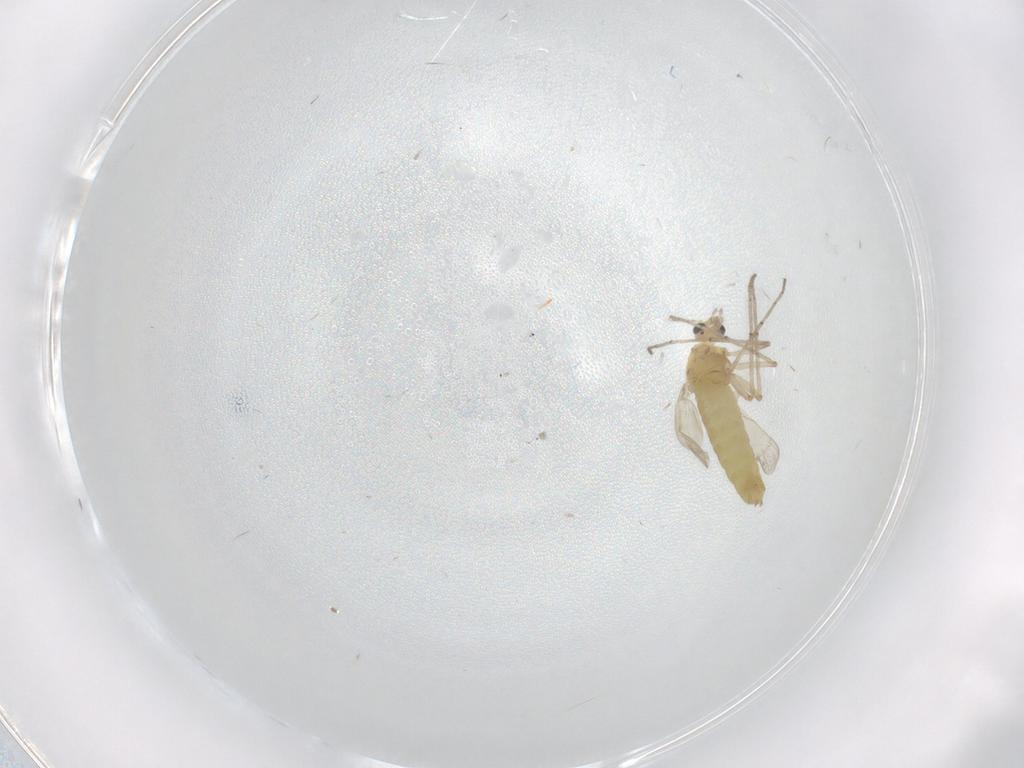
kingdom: Animalia
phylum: Arthropoda
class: Insecta
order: Diptera
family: Chironomidae
